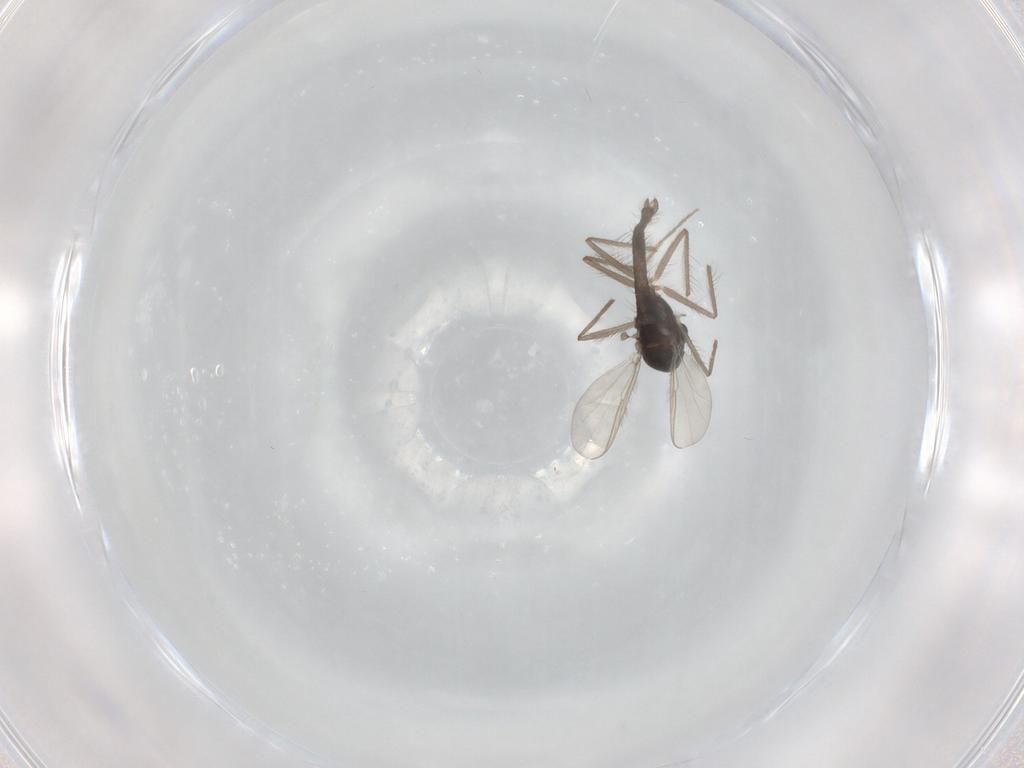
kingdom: Animalia
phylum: Arthropoda
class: Insecta
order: Diptera
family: Chironomidae
